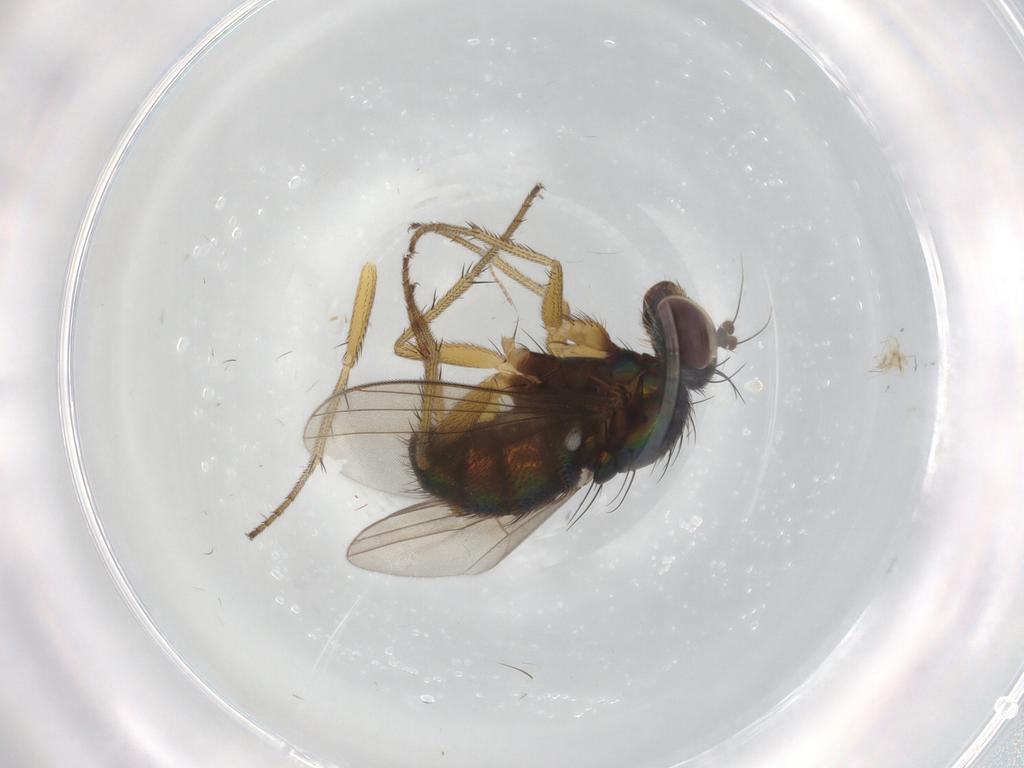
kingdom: Animalia
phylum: Arthropoda
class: Insecta
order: Diptera
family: Dolichopodidae
